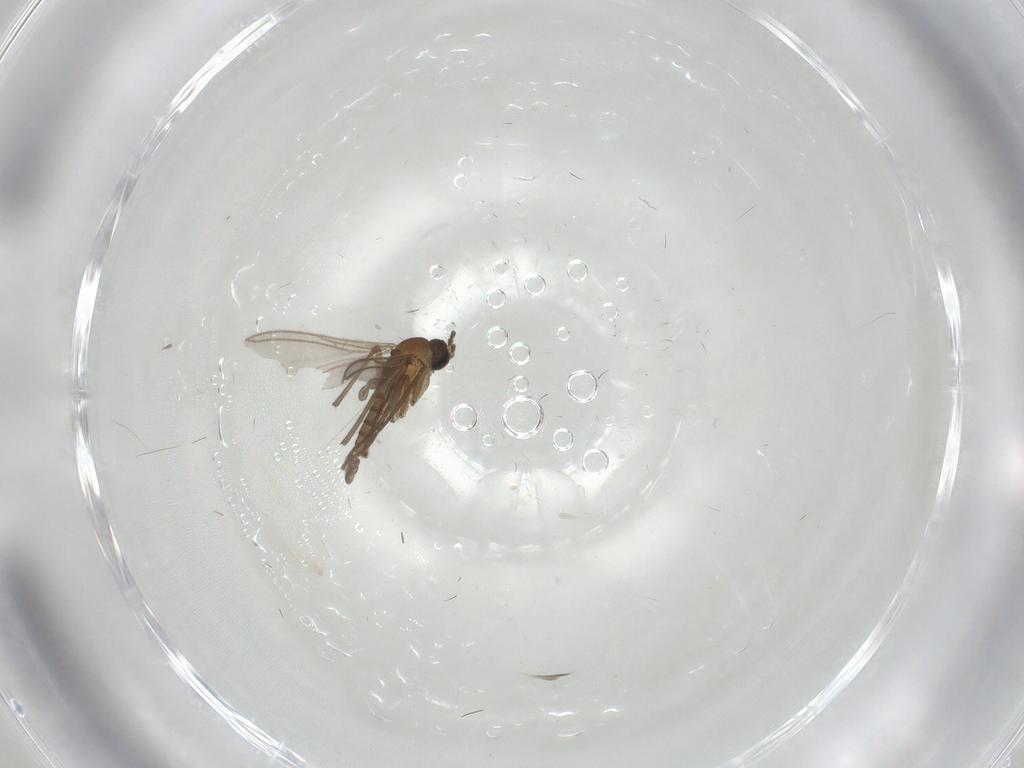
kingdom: Animalia
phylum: Arthropoda
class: Insecta
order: Diptera
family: Sciaridae
